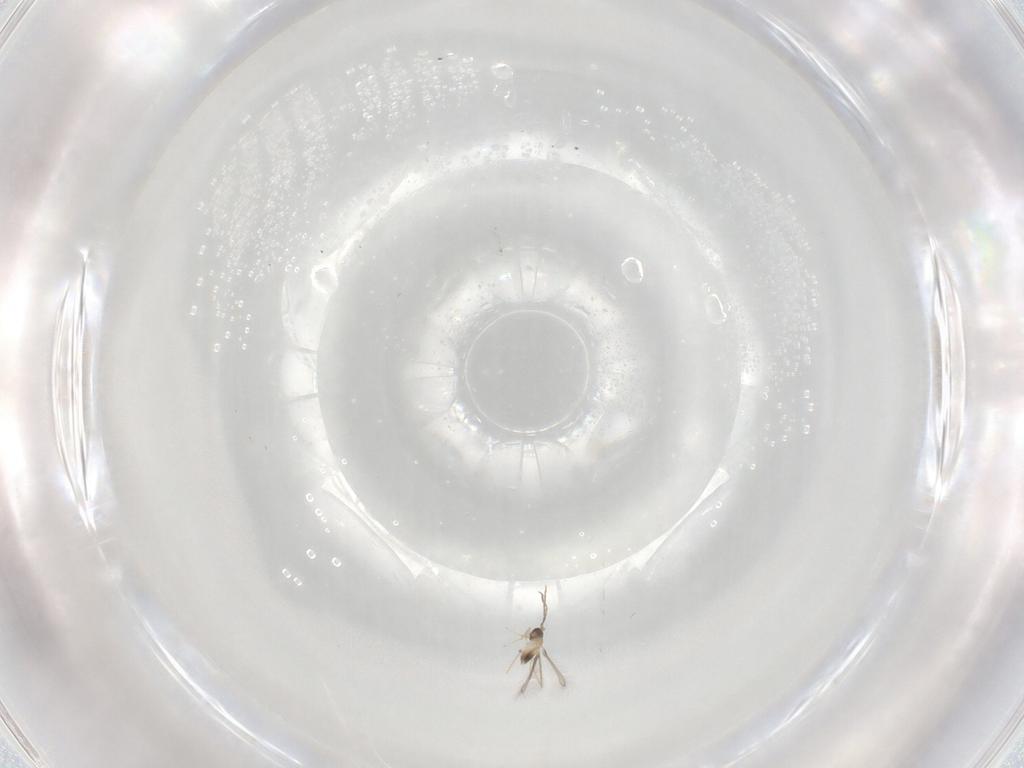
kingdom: Animalia
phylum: Arthropoda
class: Insecta
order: Hymenoptera
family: Mymaridae
